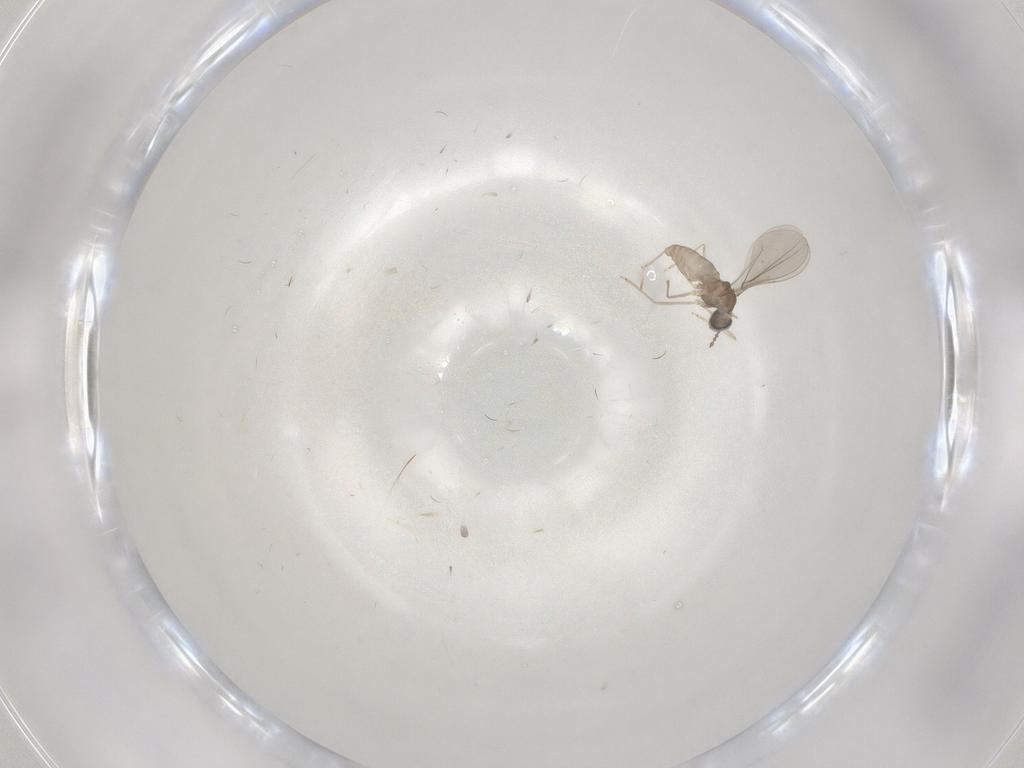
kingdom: Animalia
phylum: Arthropoda
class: Insecta
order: Diptera
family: Cecidomyiidae
